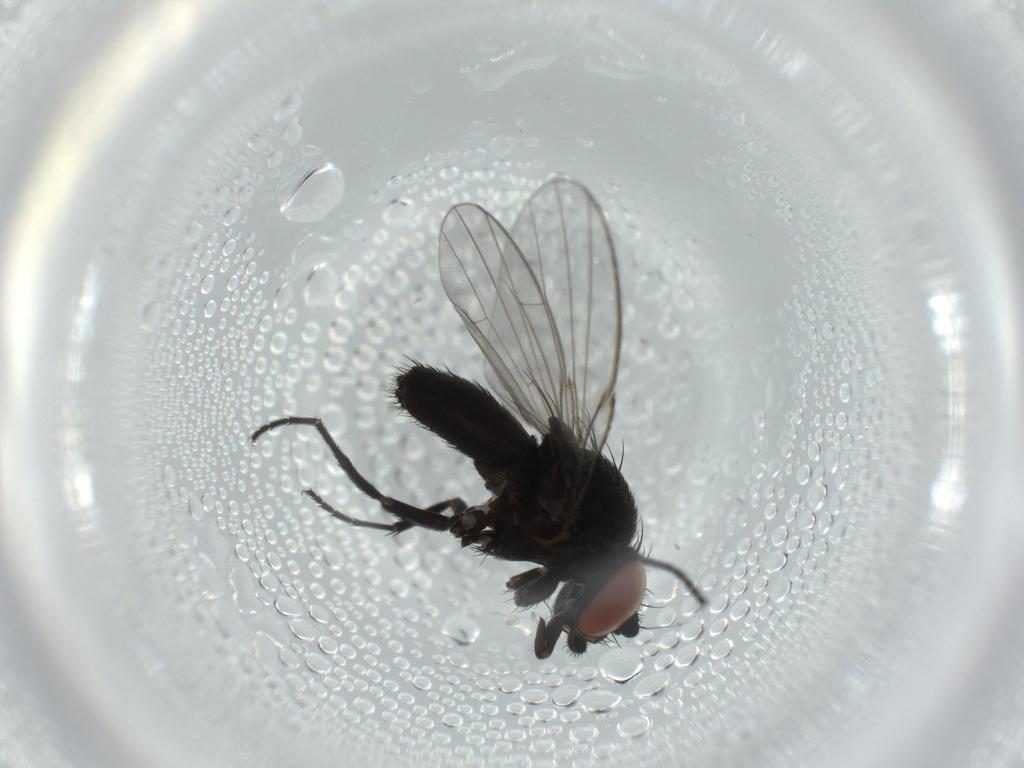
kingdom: Animalia
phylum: Arthropoda
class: Insecta
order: Diptera
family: Milichiidae
